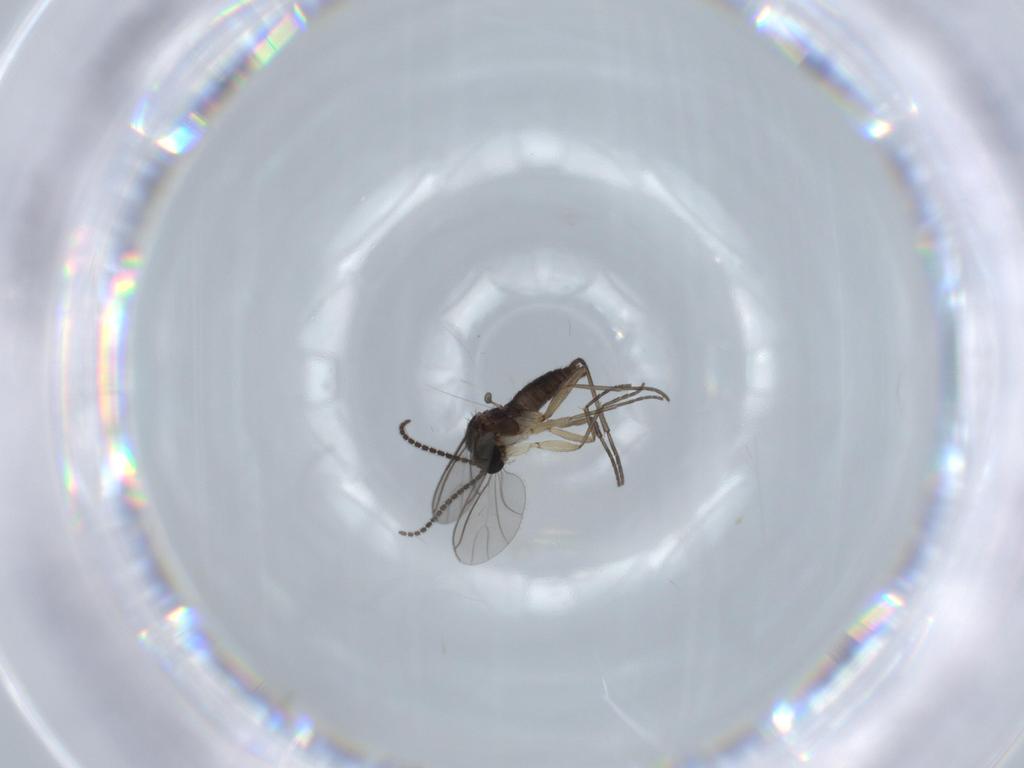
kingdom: Animalia
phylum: Arthropoda
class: Insecta
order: Diptera
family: Sciaridae
